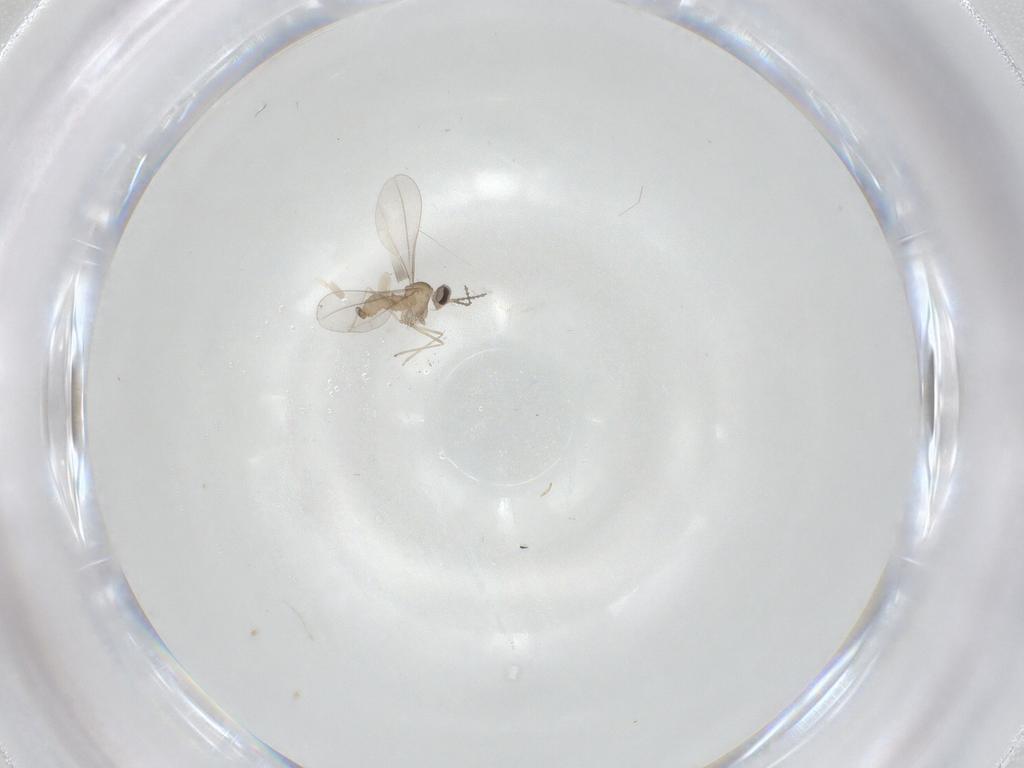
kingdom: Animalia
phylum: Arthropoda
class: Insecta
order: Diptera
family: Psychodidae
